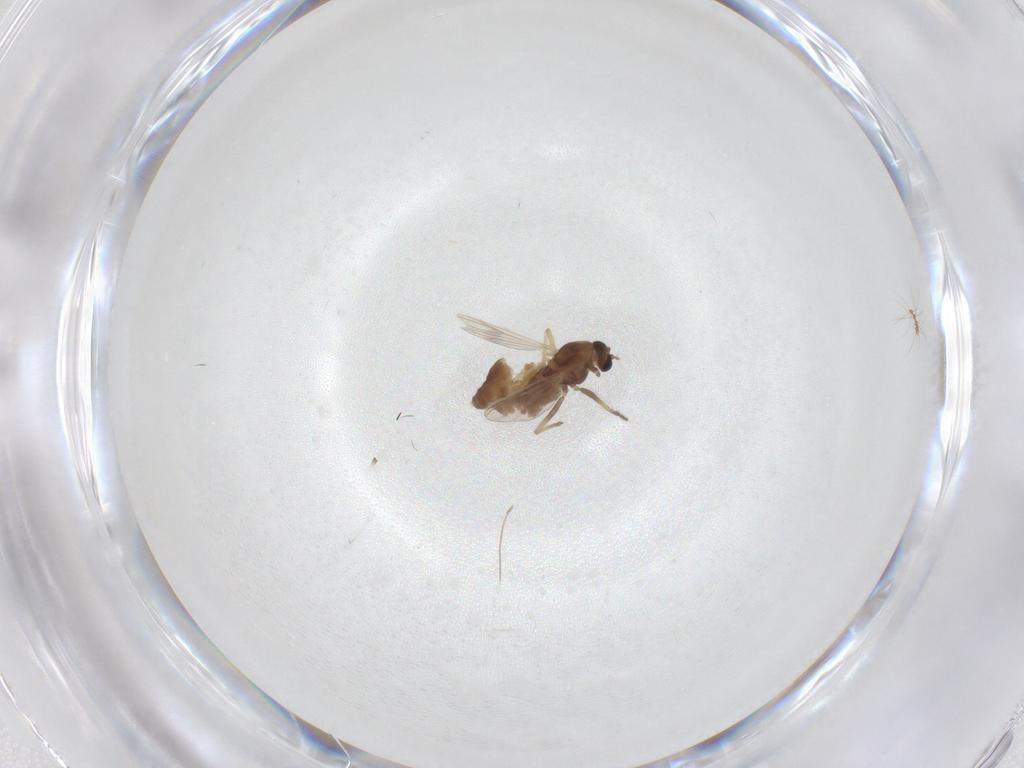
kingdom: Animalia
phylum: Arthropoda
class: Insecta
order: Diptera
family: Chironomidae
